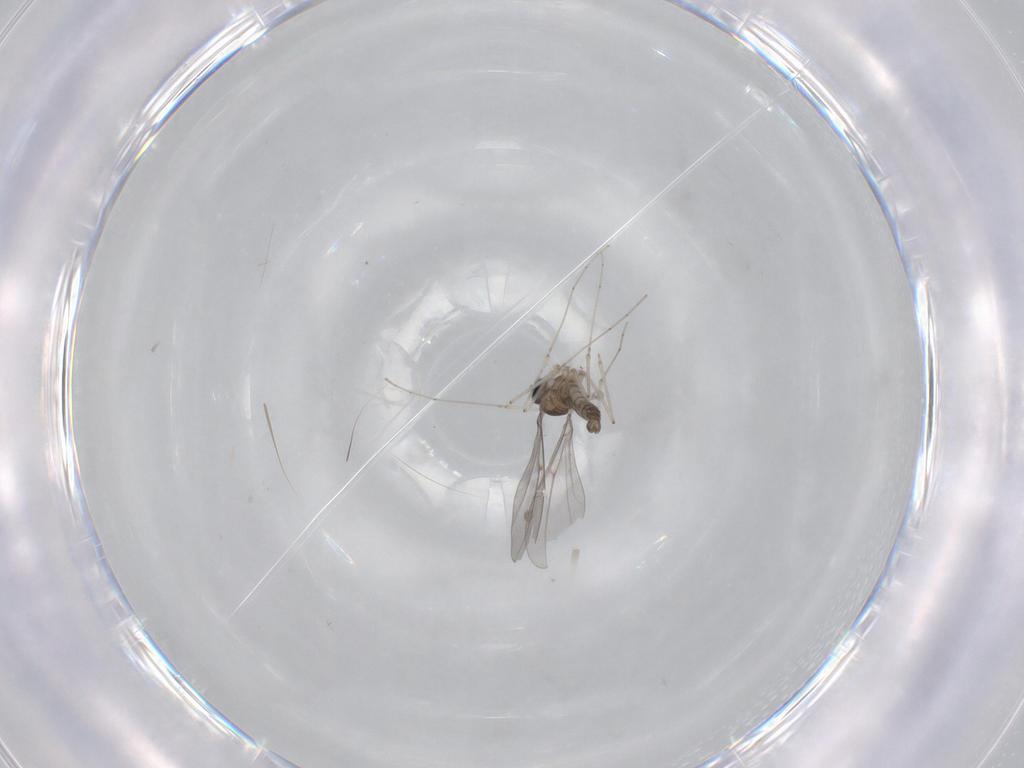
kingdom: Animalia
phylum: Arthropoda
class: Insecta
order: Diptera
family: Cecidomyiidae
